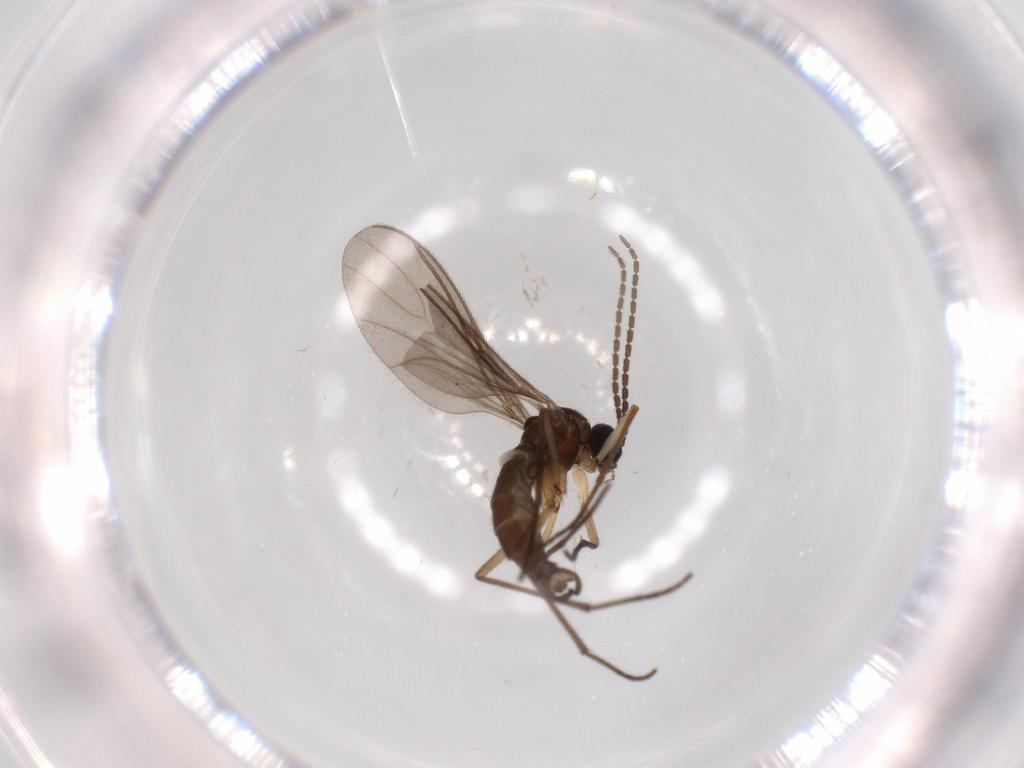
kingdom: Animalia
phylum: Arthropoda
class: Insecta
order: Diptera
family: Sciaridae
